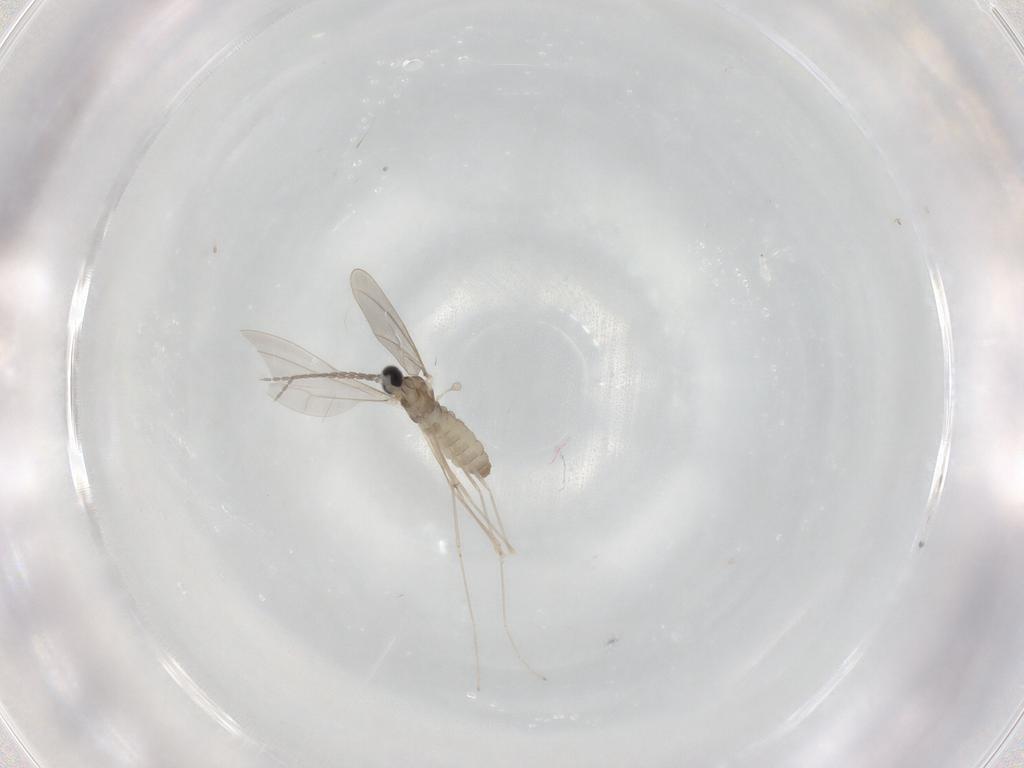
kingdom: Animalia
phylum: Arthropoda
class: Insecta
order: Diptera
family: Cecidomyiidae
